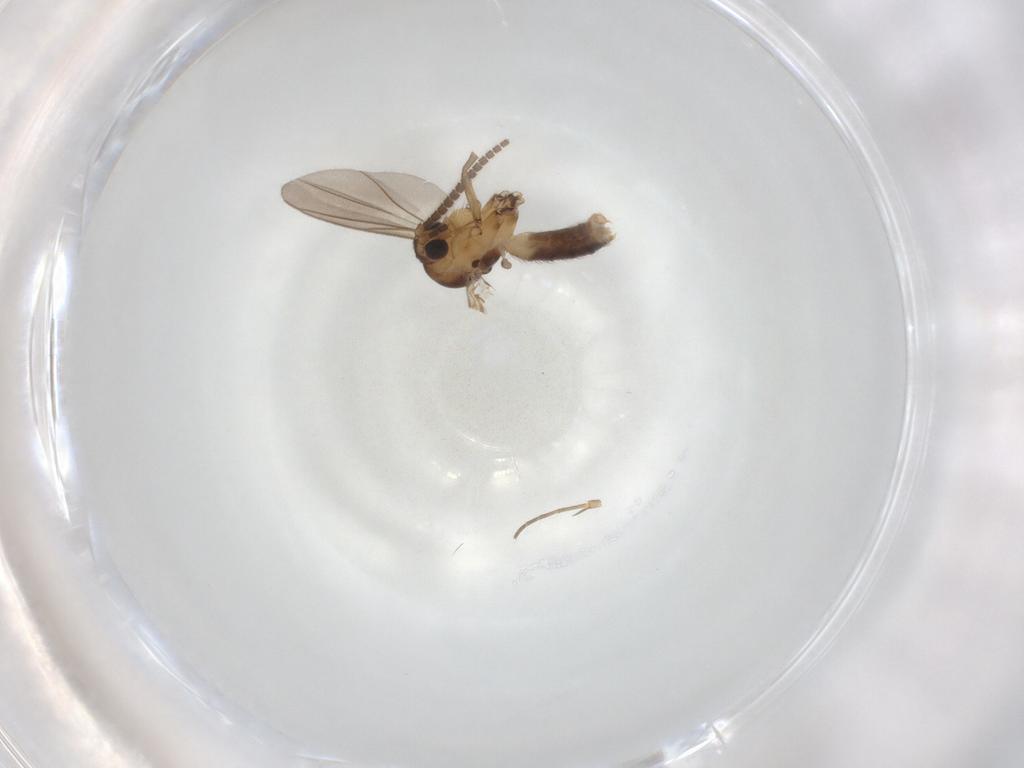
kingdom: Animalia
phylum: Arthropoda
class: Insecta
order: Diptera
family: Mycetophilidae
